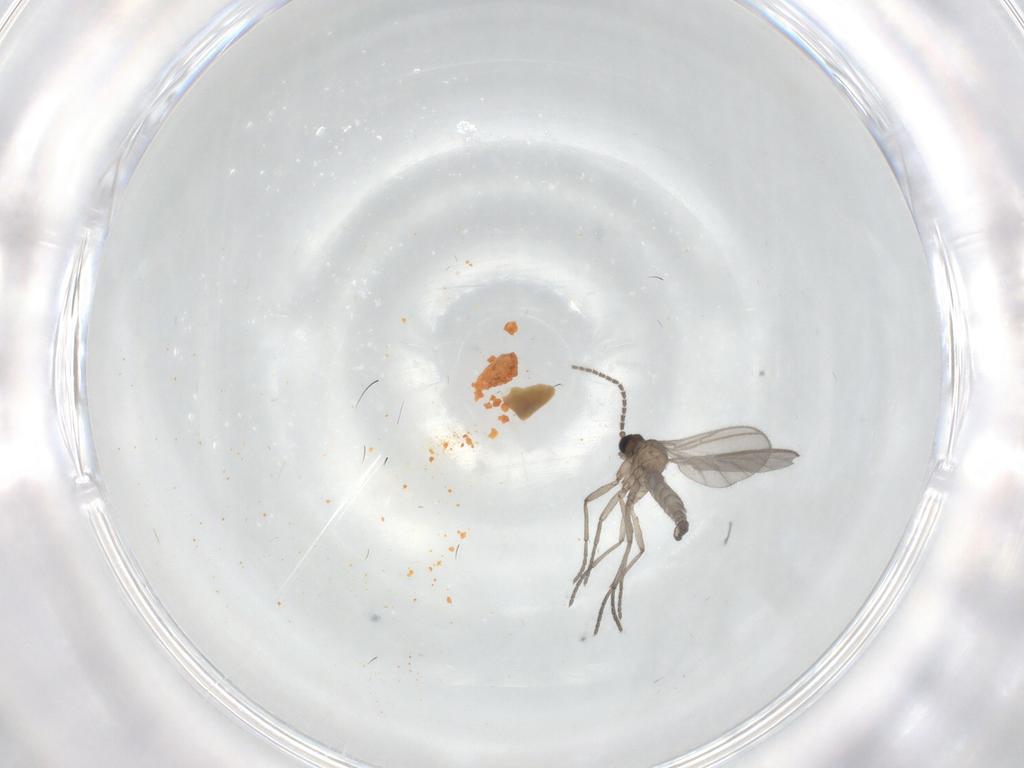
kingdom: Animalia
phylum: Arthropoda
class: Insecta
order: Diptera
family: Sciaridae
